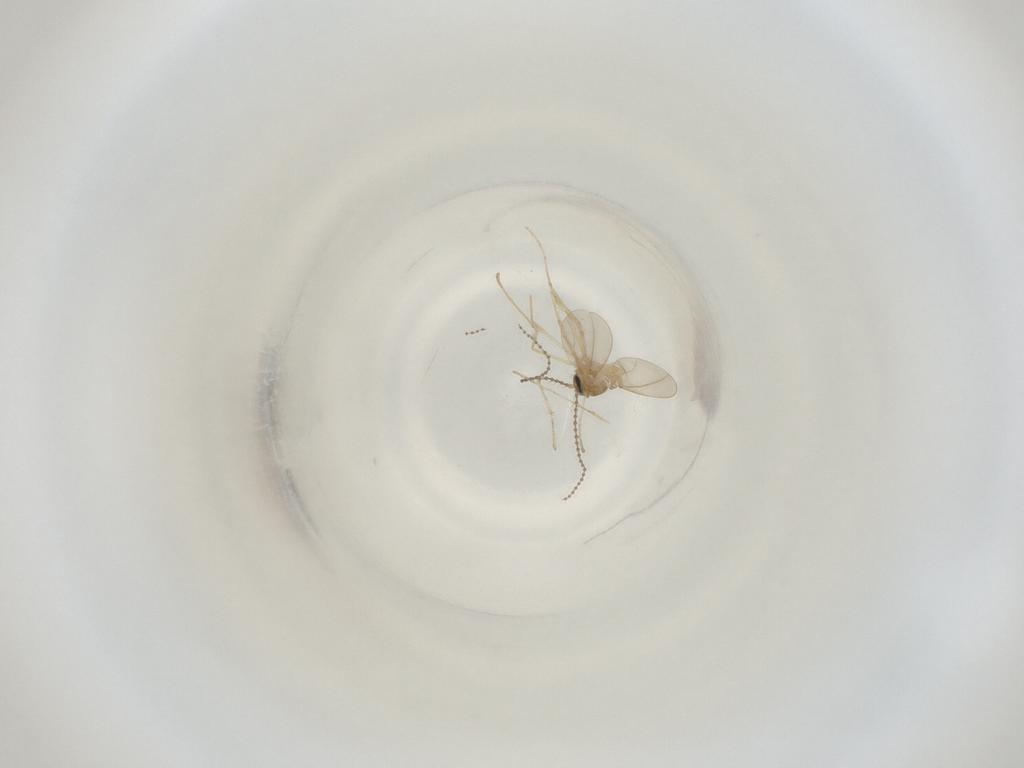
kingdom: Animalia
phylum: Arthropoda
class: Insecta
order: Diptera
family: Cecidomyiidae
